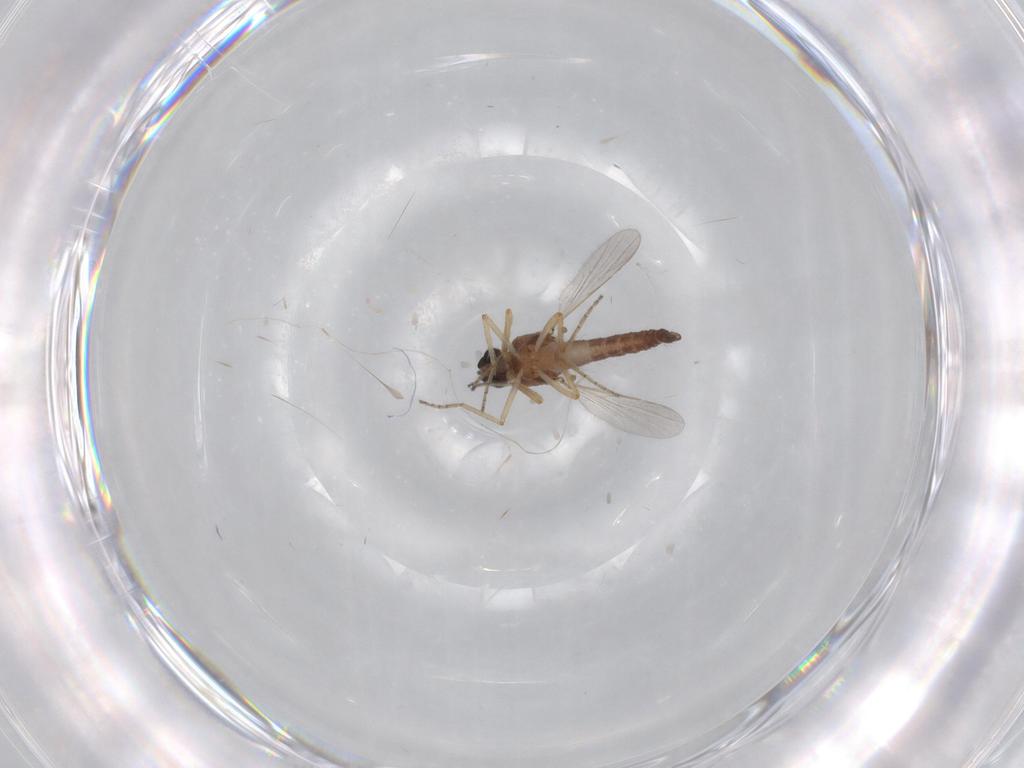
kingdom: Animalia
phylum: Arthropoda
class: Insecta
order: Diptera
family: Ceratopogonidae
